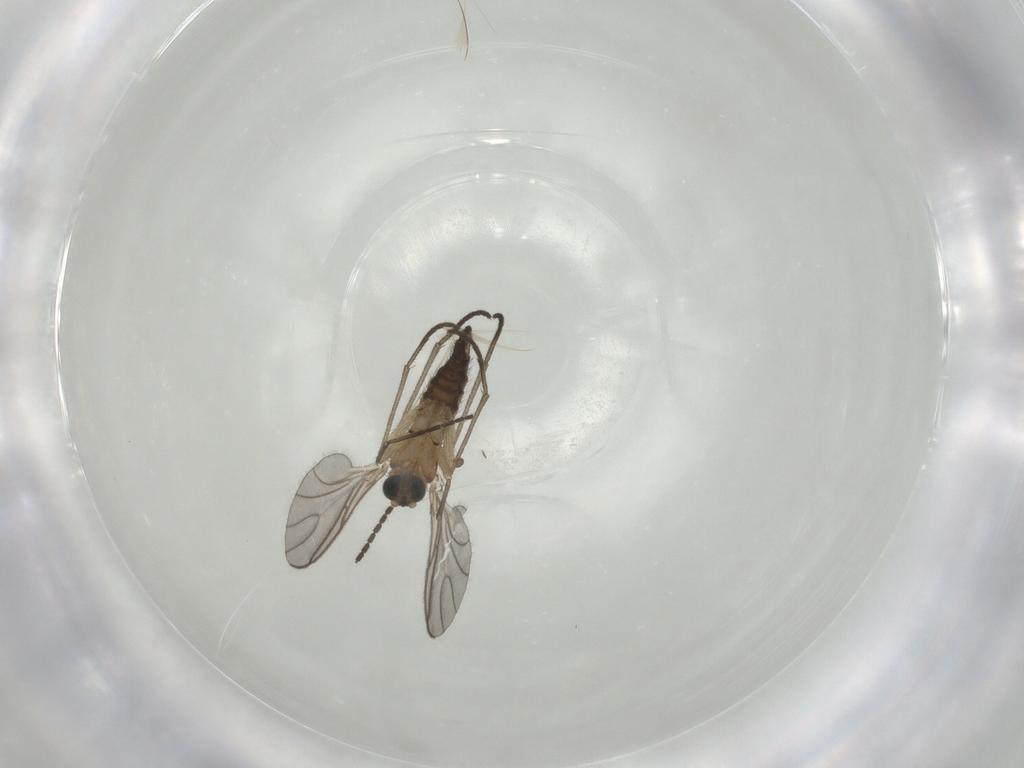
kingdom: Animalia
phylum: Arthropoda
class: Insecta
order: Diptera
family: Sciaridae
